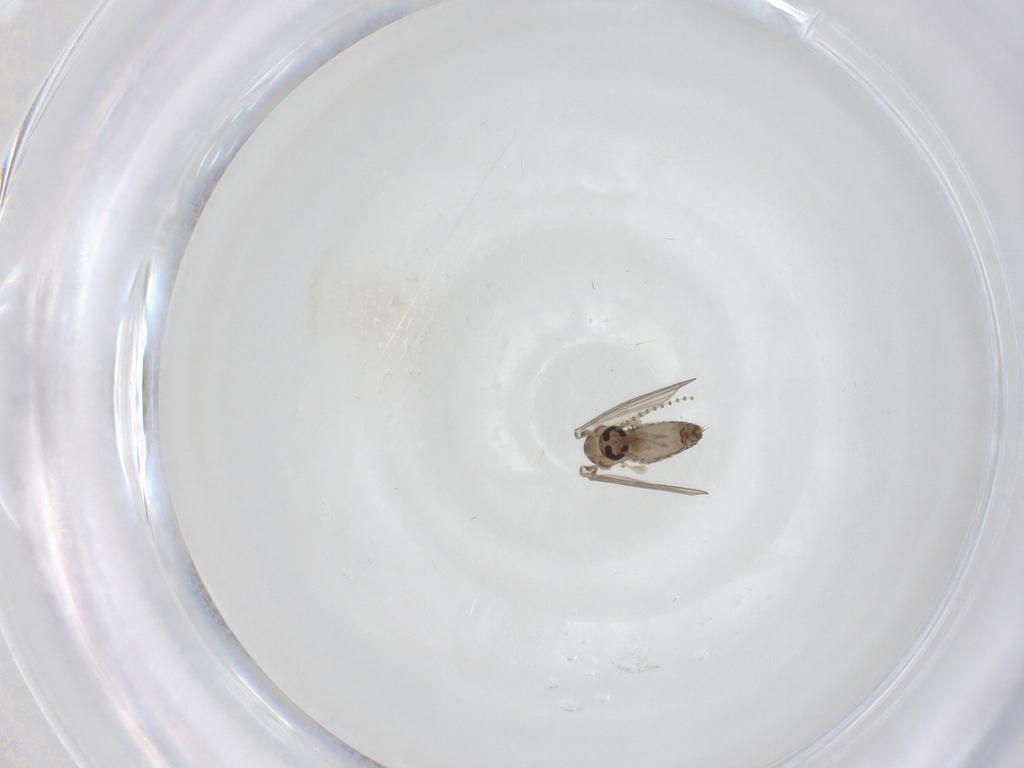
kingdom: Animalia
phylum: Arthropoda
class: Insecta
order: Diptera
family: Psychodidae
